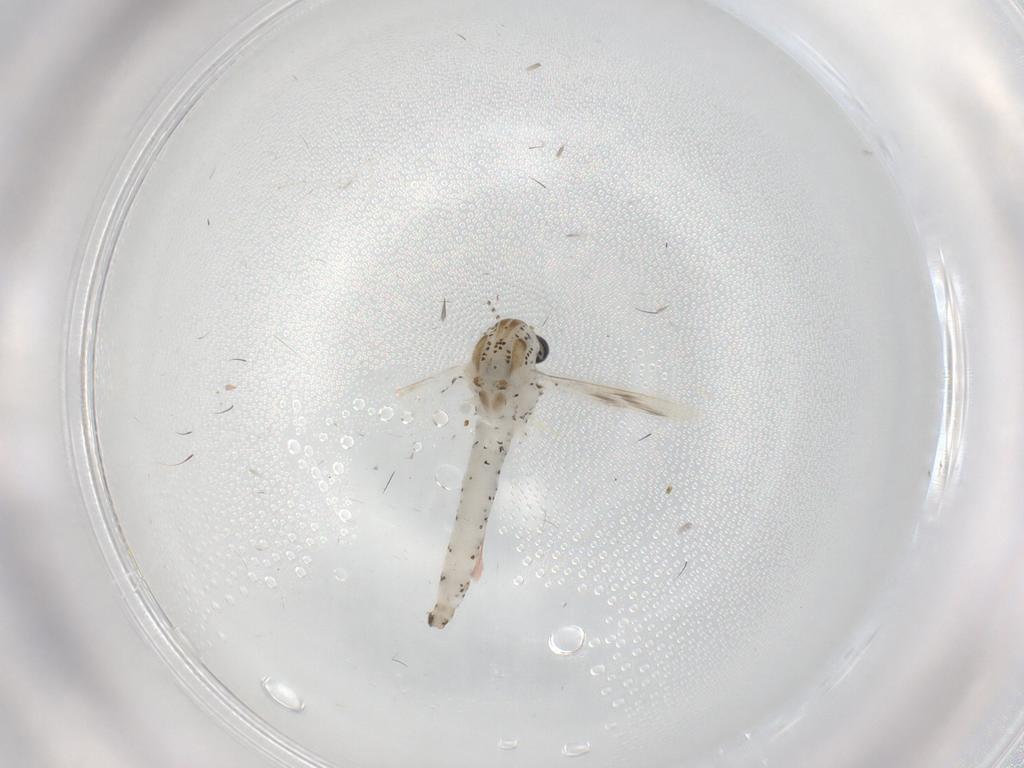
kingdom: Animalia
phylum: Arthropoda
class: Insecta
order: Diptera
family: Chaoboridae
